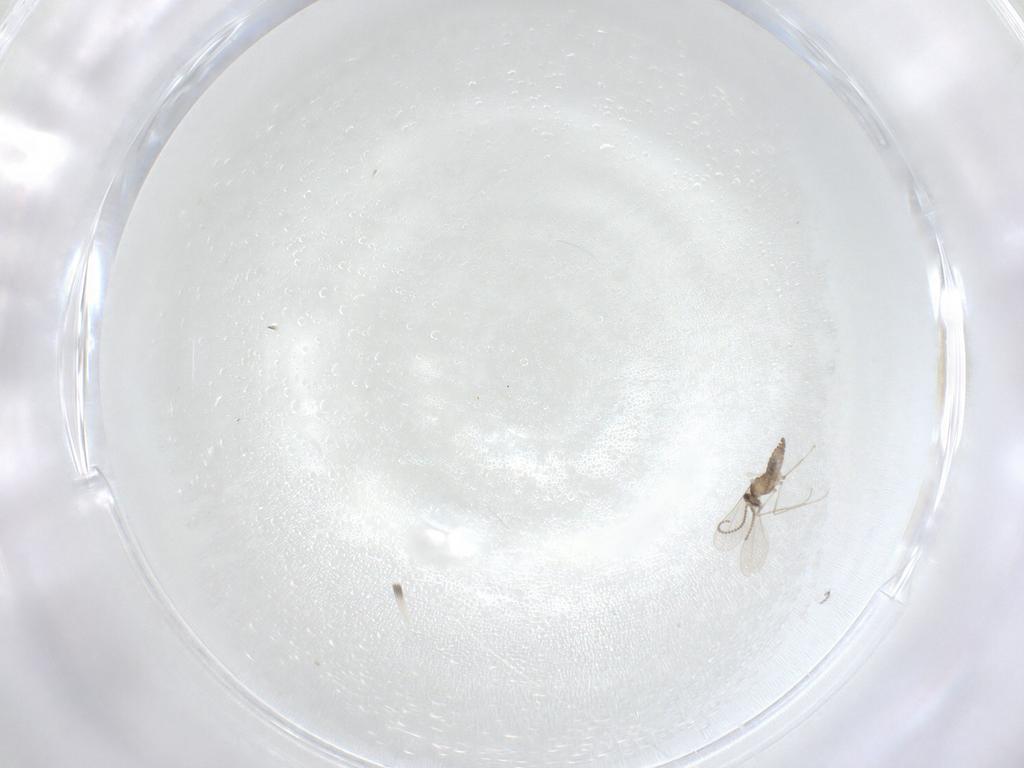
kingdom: Animalia
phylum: Arthropoda
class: Insecta
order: Diptera
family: Cecidomyiidae
